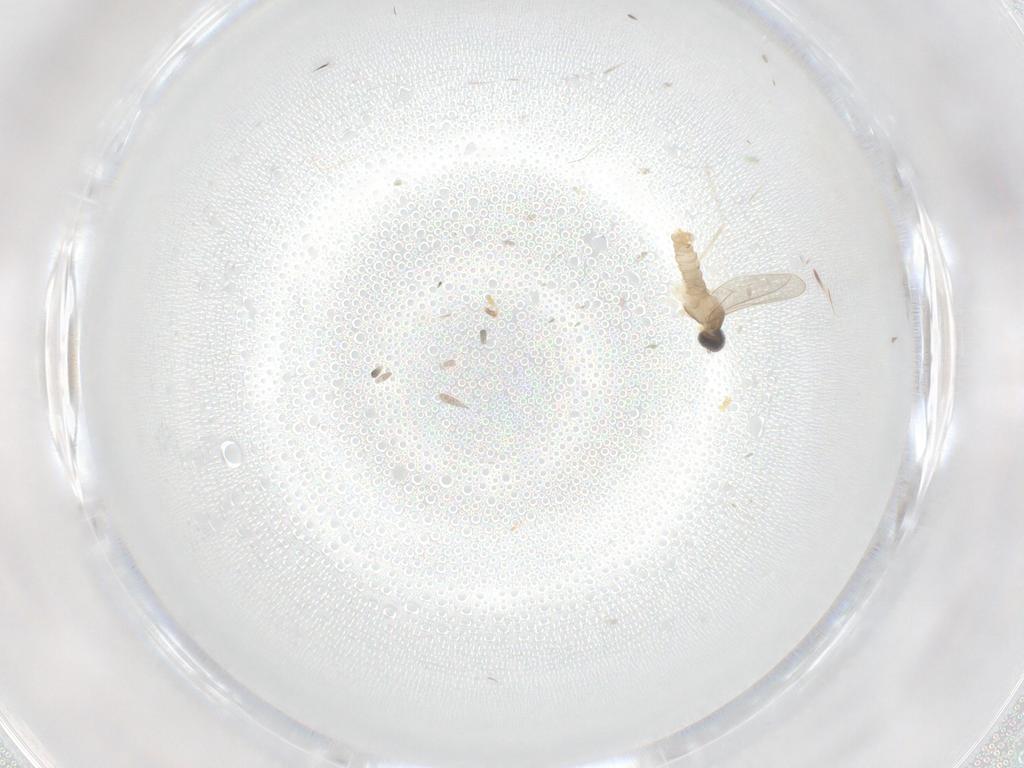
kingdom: Animalia
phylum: Arthropoda
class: Insecta
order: Diptera
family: Cecidomyiidae
